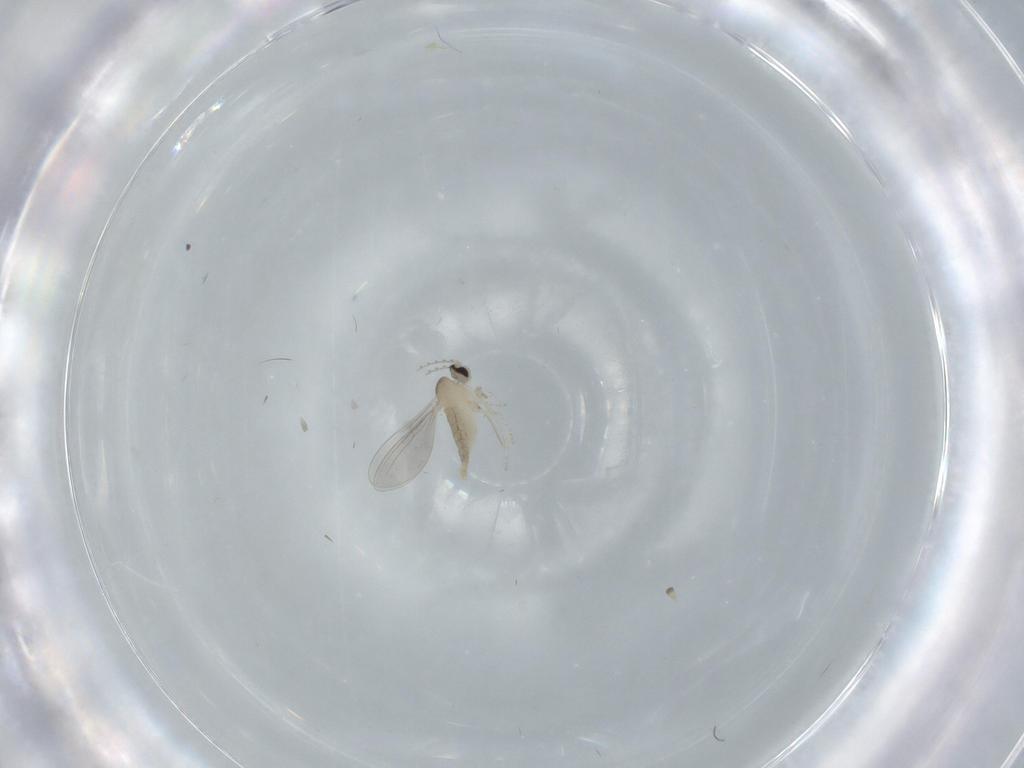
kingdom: Animalia
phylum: Arthropoda
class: Insecta
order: Diptera
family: Cecidomyiidae
